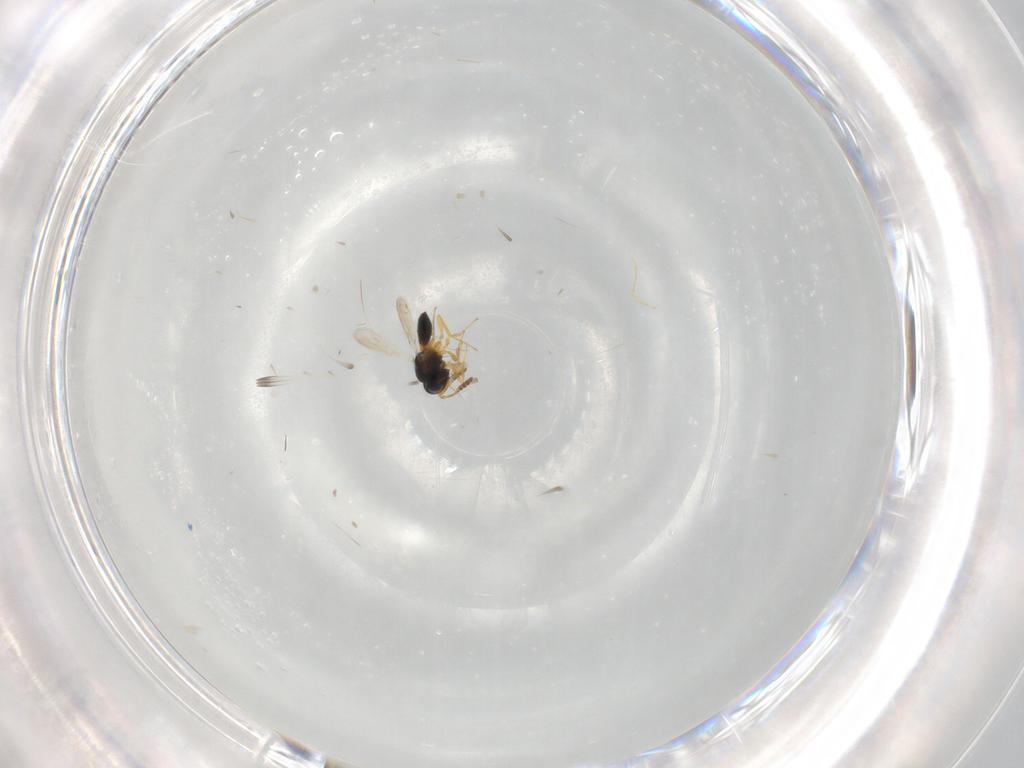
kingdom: Animalia
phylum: Arthropoda
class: Insecta
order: Hymenoptera
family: Scelionidae
